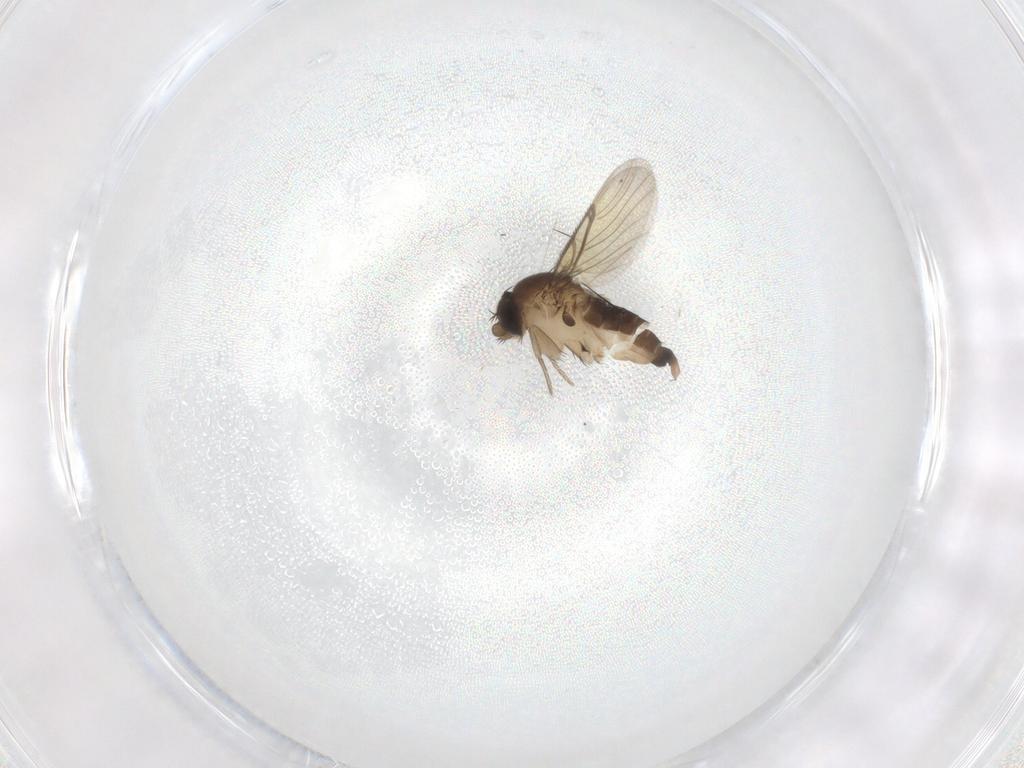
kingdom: Animalia
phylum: Arthropoda
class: Insecta
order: Diptera
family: Phoridae
